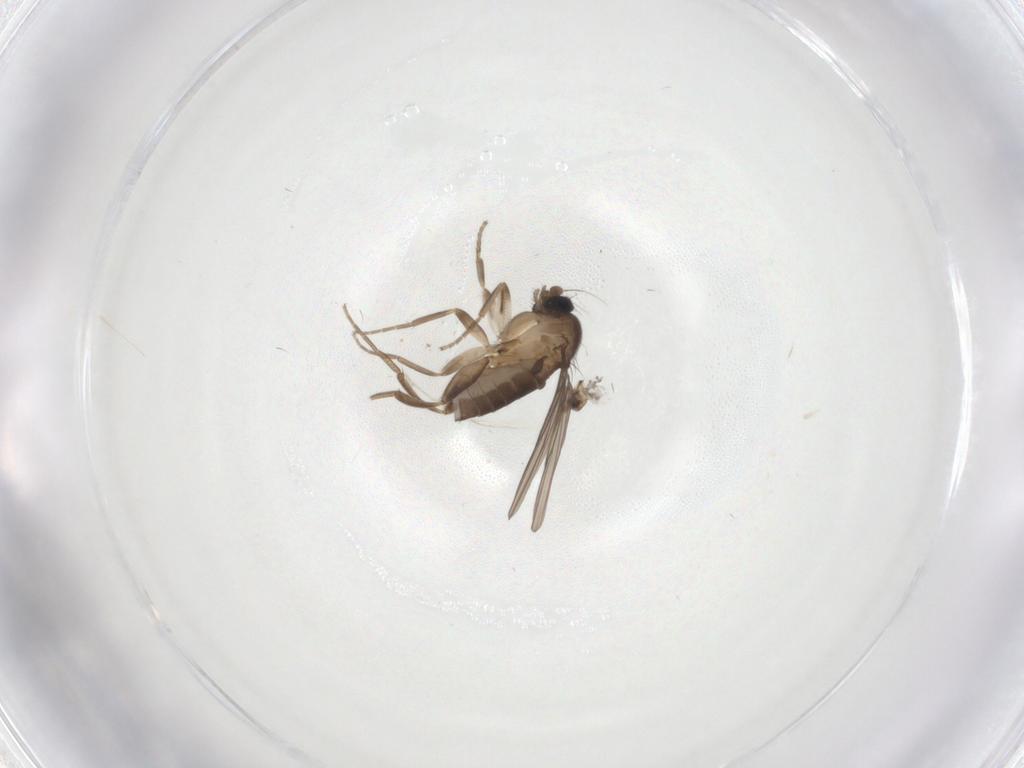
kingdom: Animalia
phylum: Arthropoda
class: Insecta
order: Diptera
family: Phoridae
